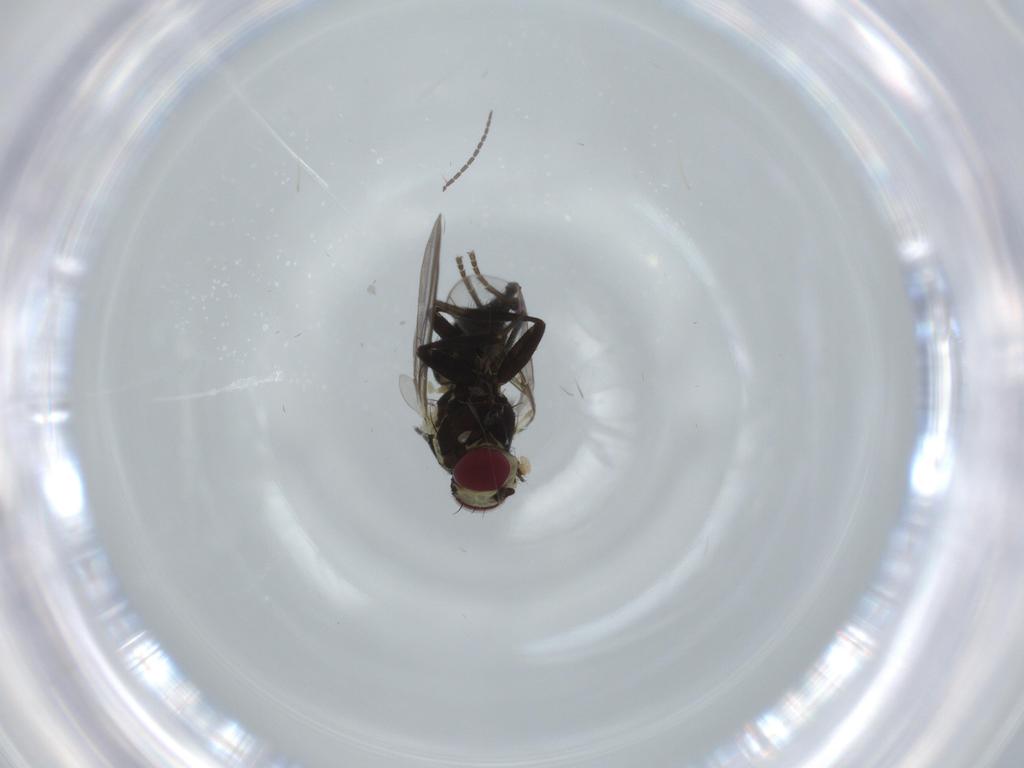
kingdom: Animalia
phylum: Arthropoda
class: Insecta
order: Diptera
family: Agromyzidae
